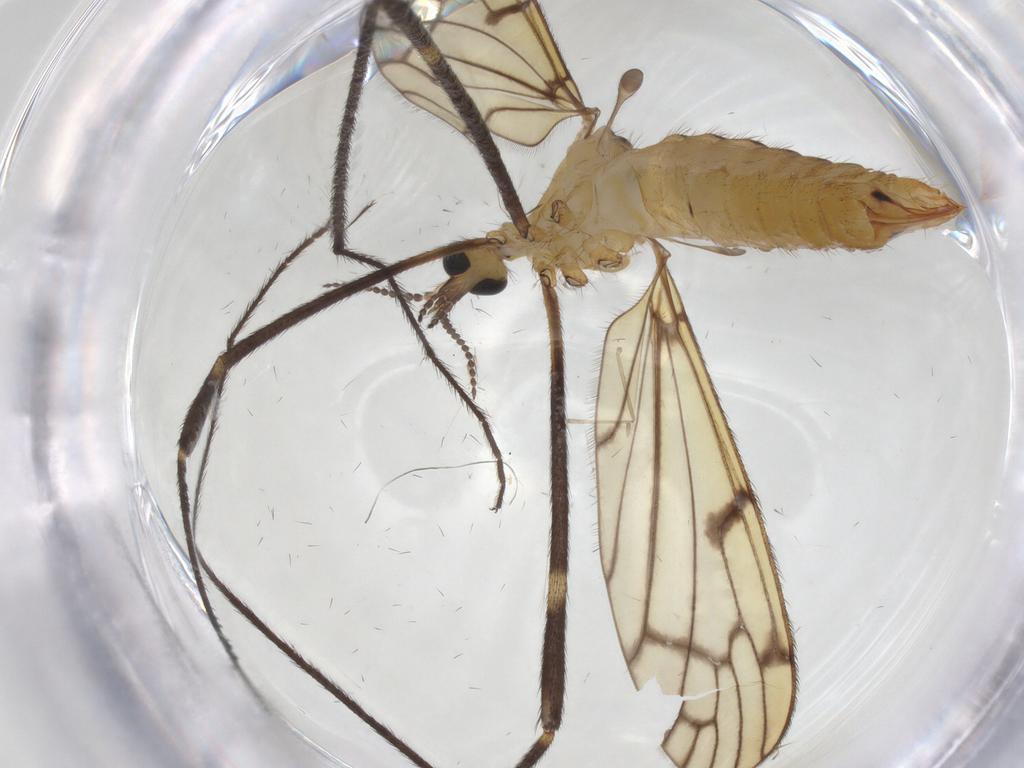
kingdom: Animalia
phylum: Arthropoda
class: Insecta
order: Diptera
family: Limoniidae
